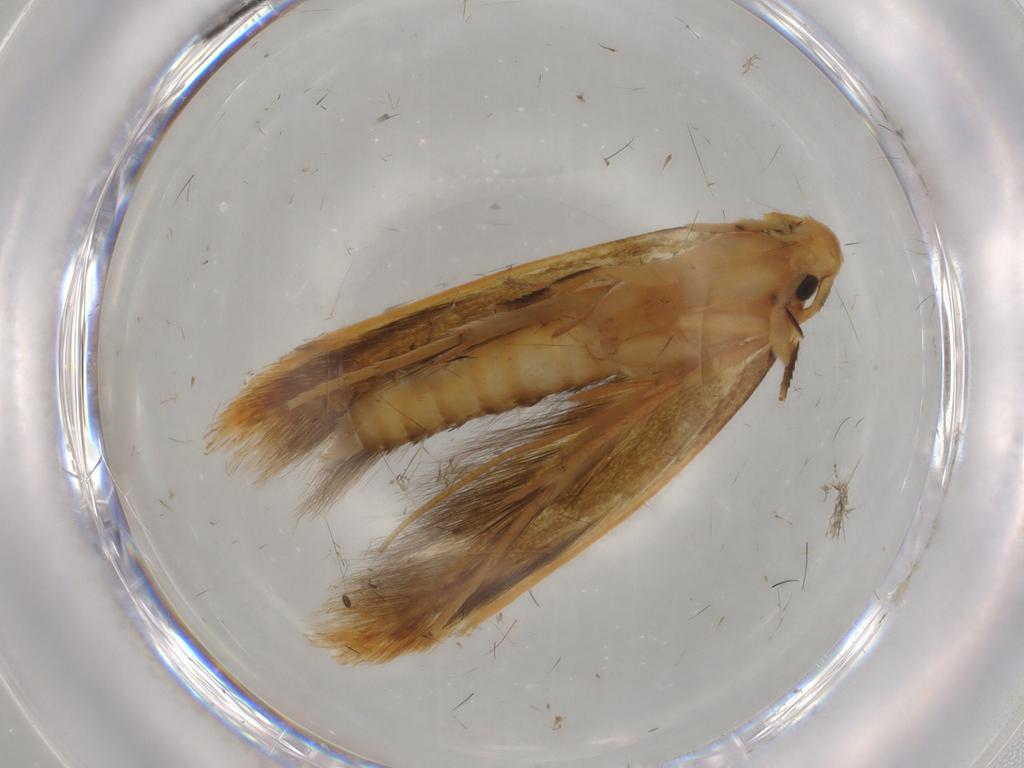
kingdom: Animalia
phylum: Arthropoda
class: Insecta
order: Lepidoptera
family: Tineidae
